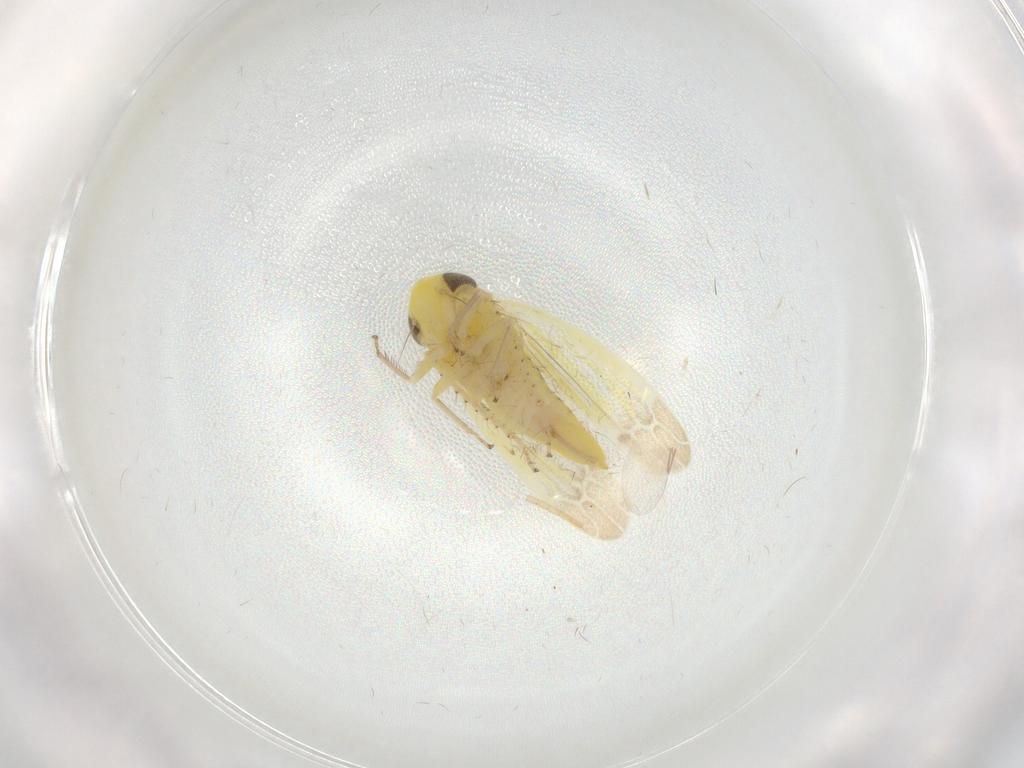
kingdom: Animalia
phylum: Arthropoda
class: Insecta
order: Hemiptera
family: Cicadellidae
